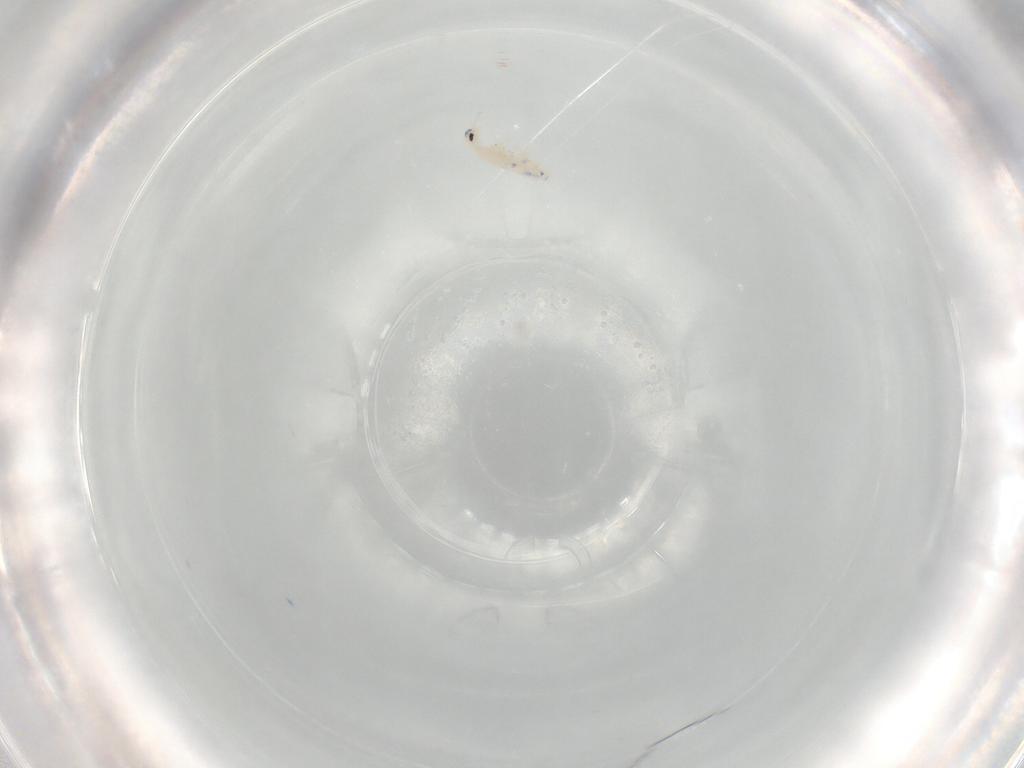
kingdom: Animalia
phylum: Arthropoda
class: Collembola
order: Entomobryomorpha
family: Entomobryidae
